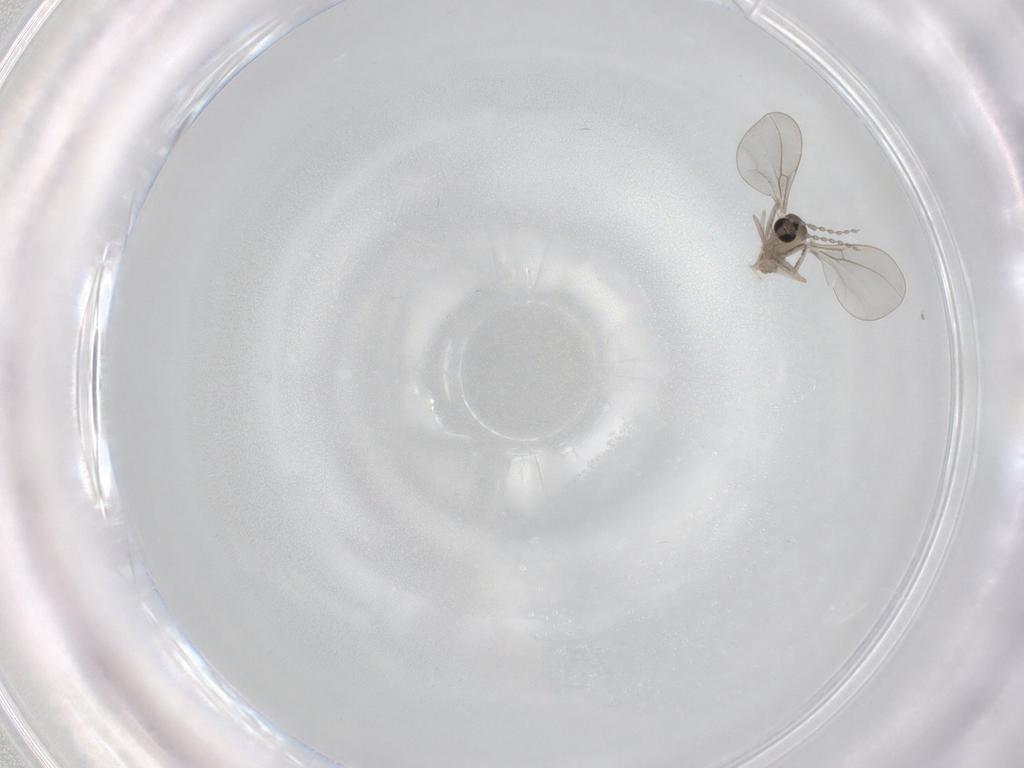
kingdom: Animalia
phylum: Arthropoda
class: Insecta
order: Diptera
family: Cecidomyiidae
